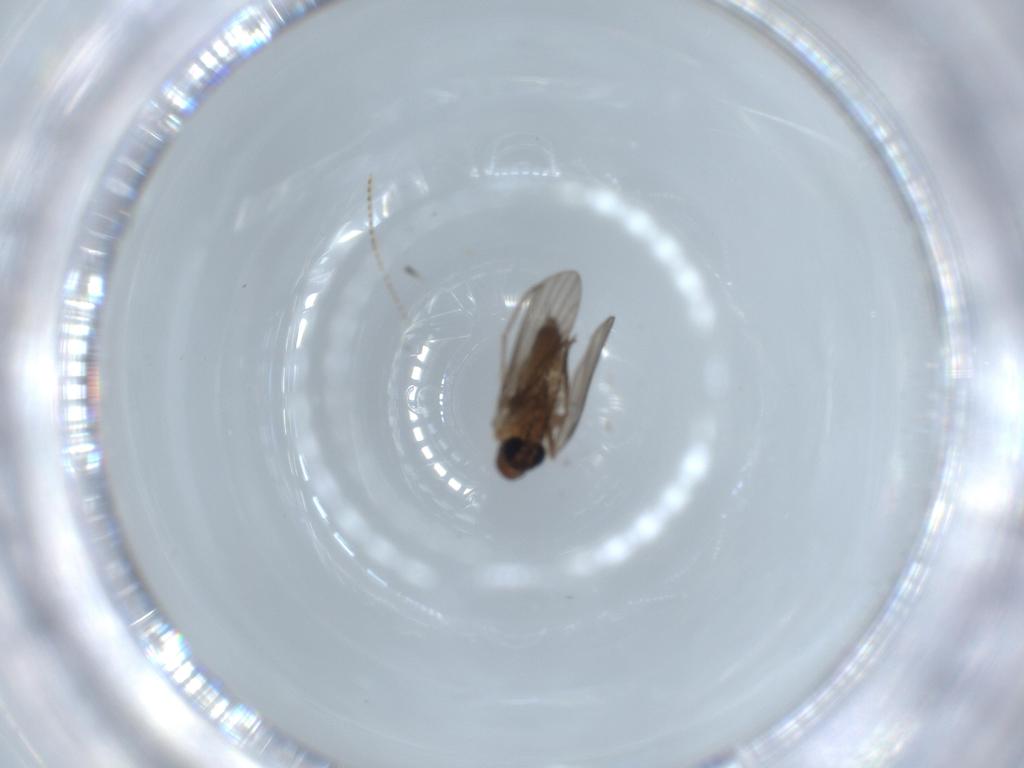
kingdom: Animalia
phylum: Arthropoda
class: Insecta
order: Diptera
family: Psychodidae
